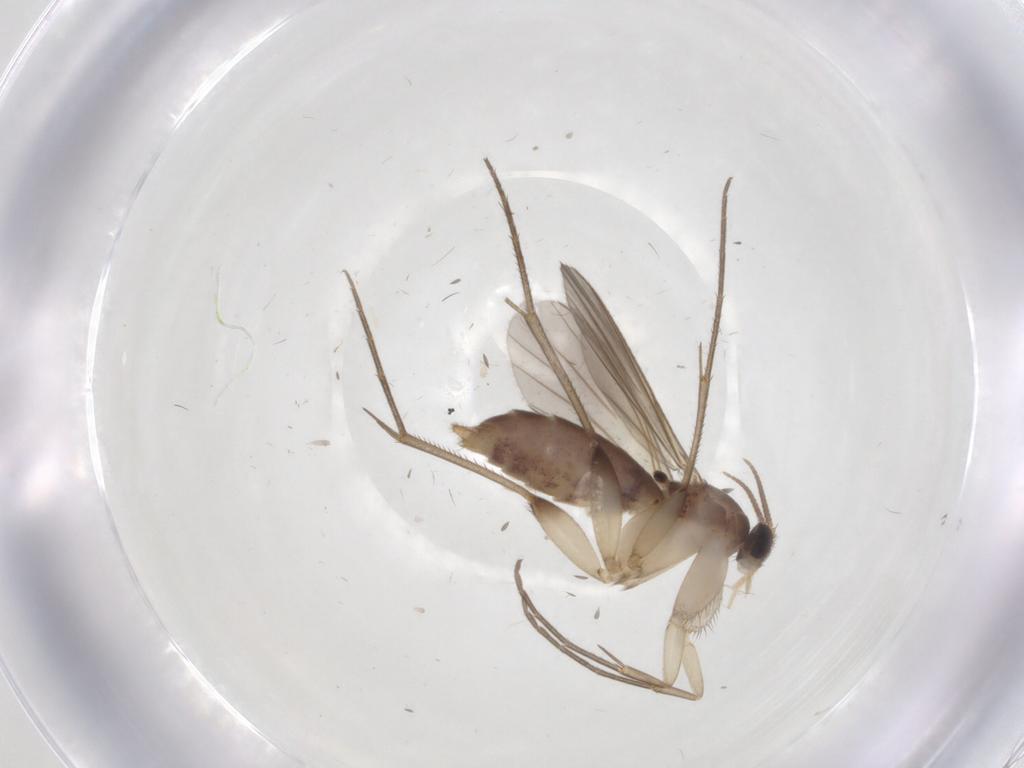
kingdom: Animalia
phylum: Arthropoda
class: Insecta
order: Diptera
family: Mycetophilidae
